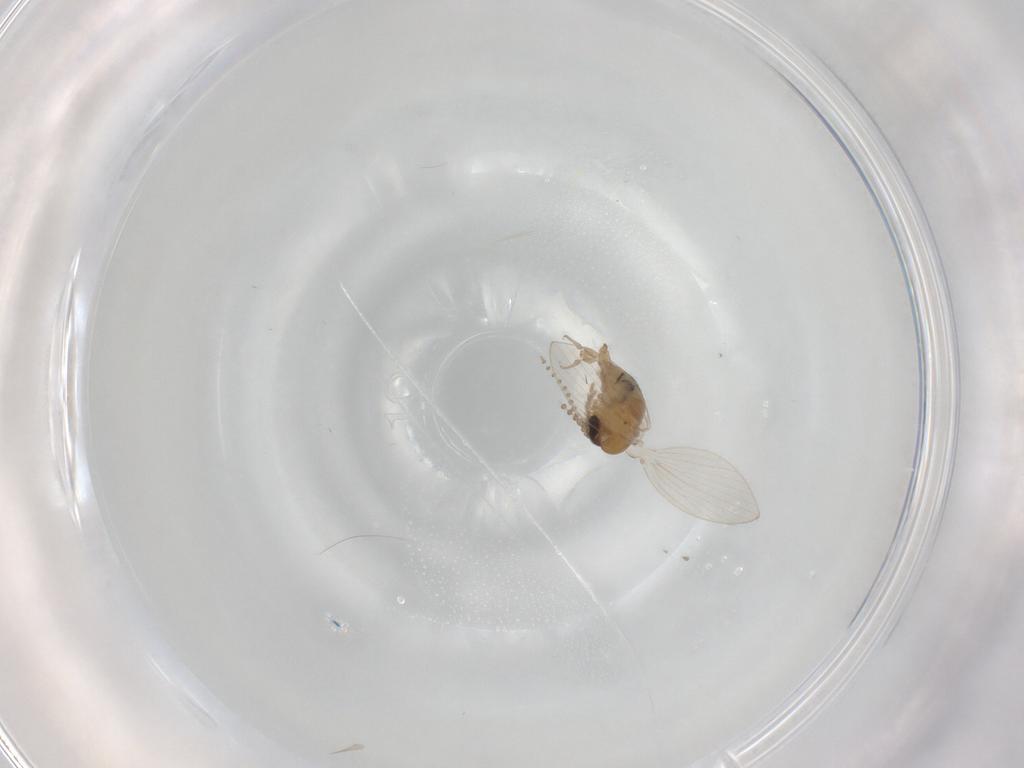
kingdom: Animalia
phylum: Arthropoda
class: Insecta
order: Diptera
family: Psychodidae
